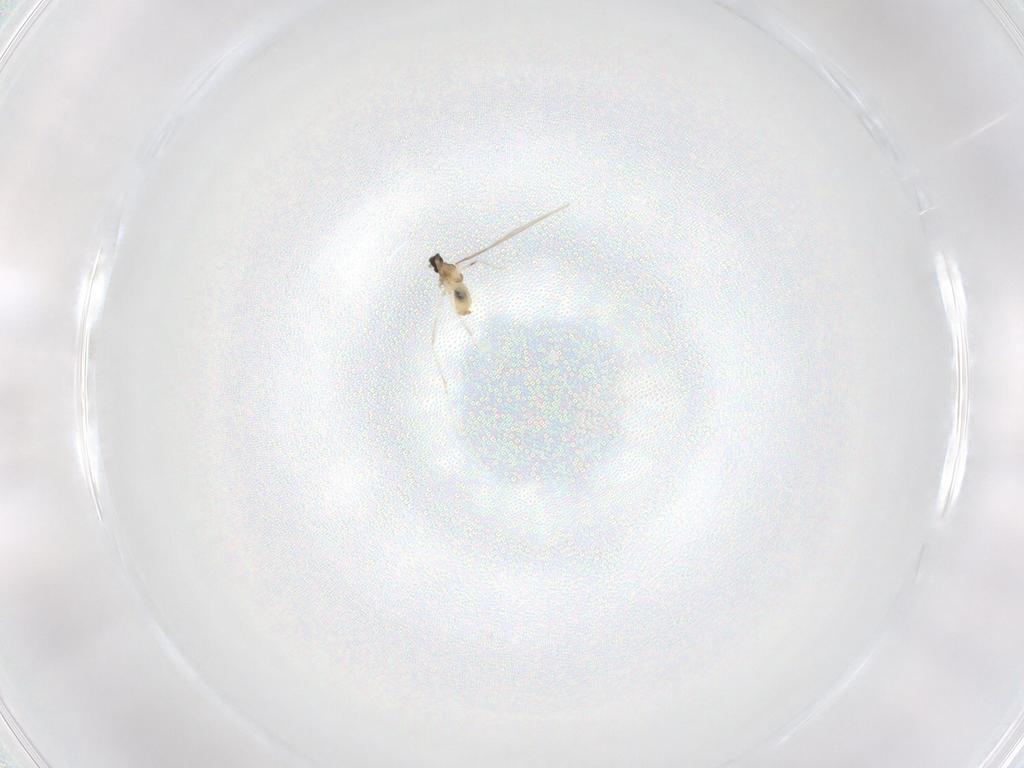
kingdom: Animalia
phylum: Arthropoda
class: Insecta
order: Diptera
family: Cecidomyiidae
